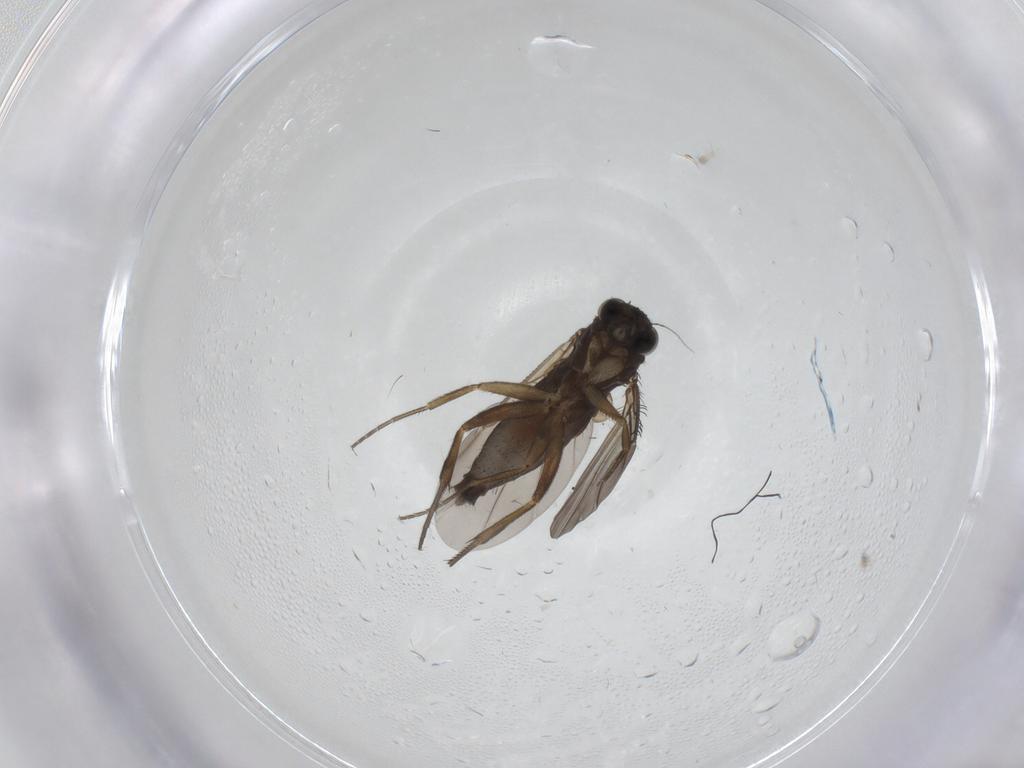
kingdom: Animalia
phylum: Arthropoda
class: Insecta
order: Diptera
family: Phoridae
